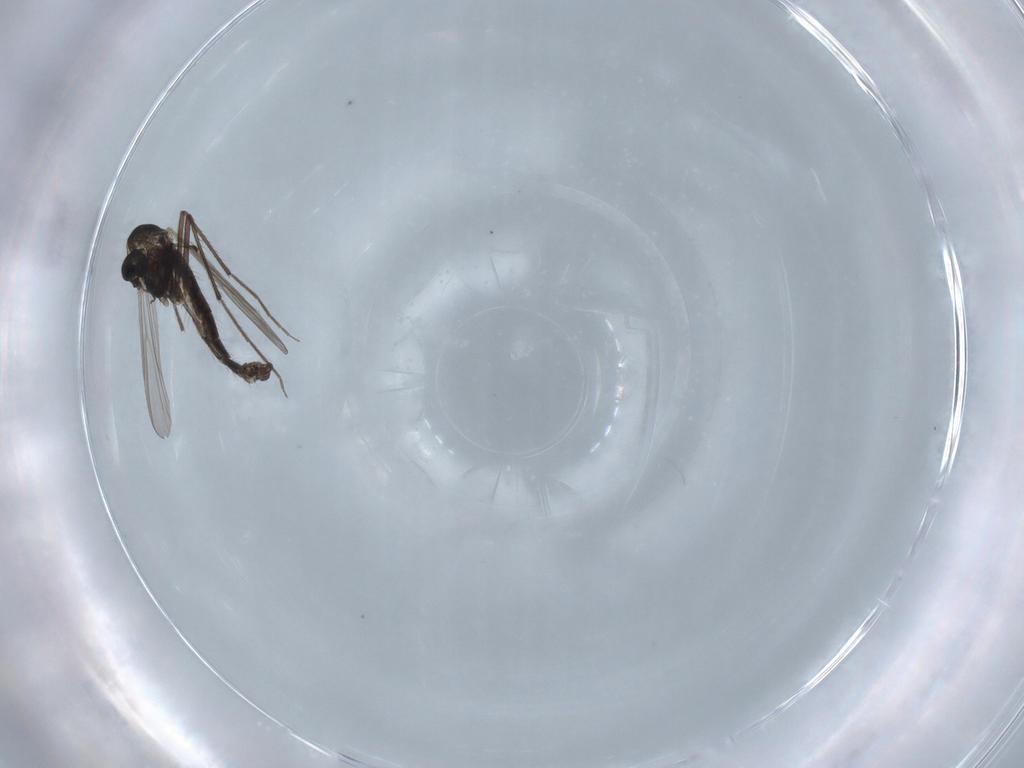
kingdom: Animalia
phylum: Arthropoda
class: Insecta
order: Diptera
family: Chironomidae
